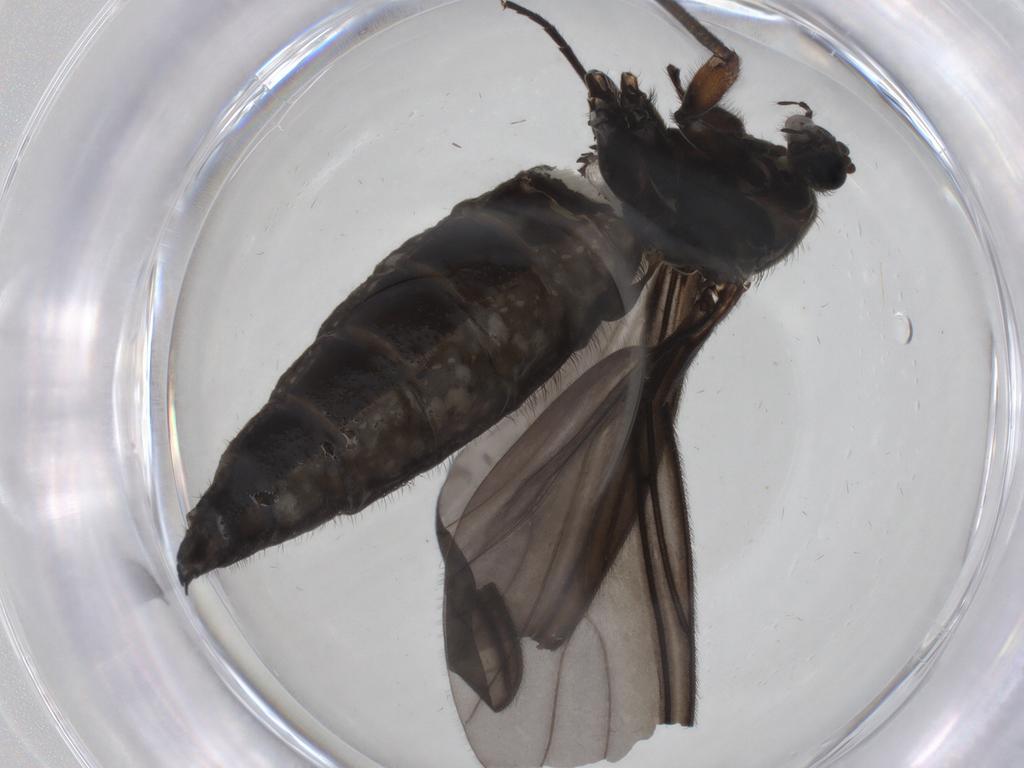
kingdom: Animalia
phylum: Arthropoda
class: Insecta
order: Diptera
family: Sciaridae
